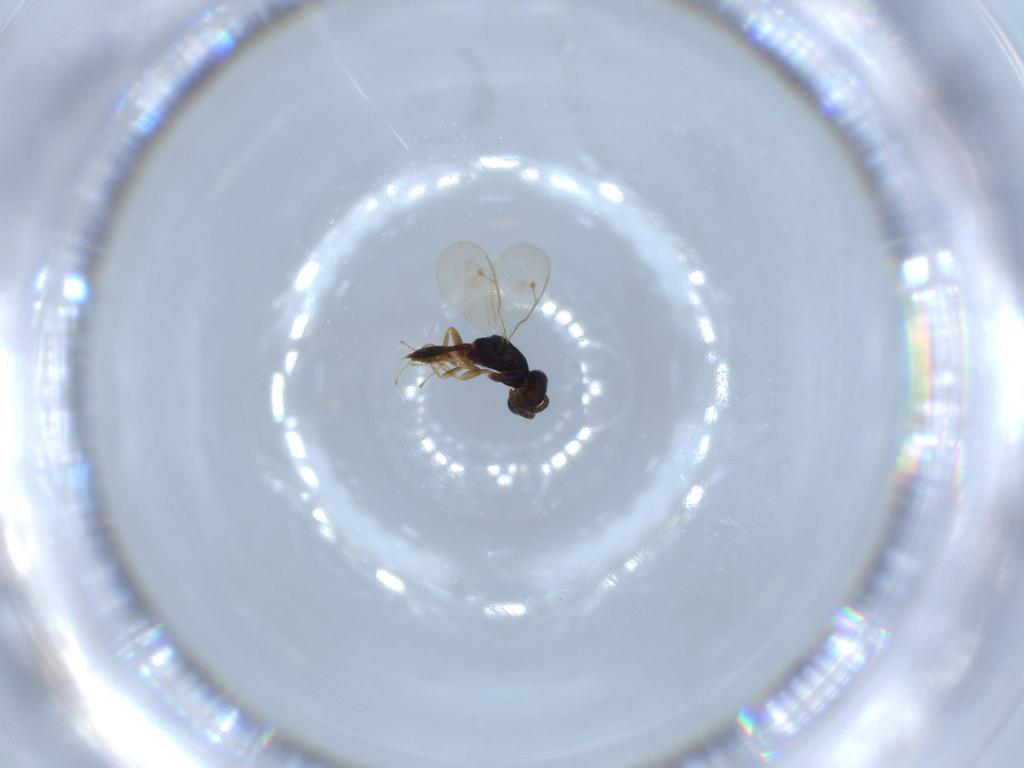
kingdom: Animalia
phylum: Arthropoda
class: Insecta
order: Hymenoptera
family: Pteromalidae
